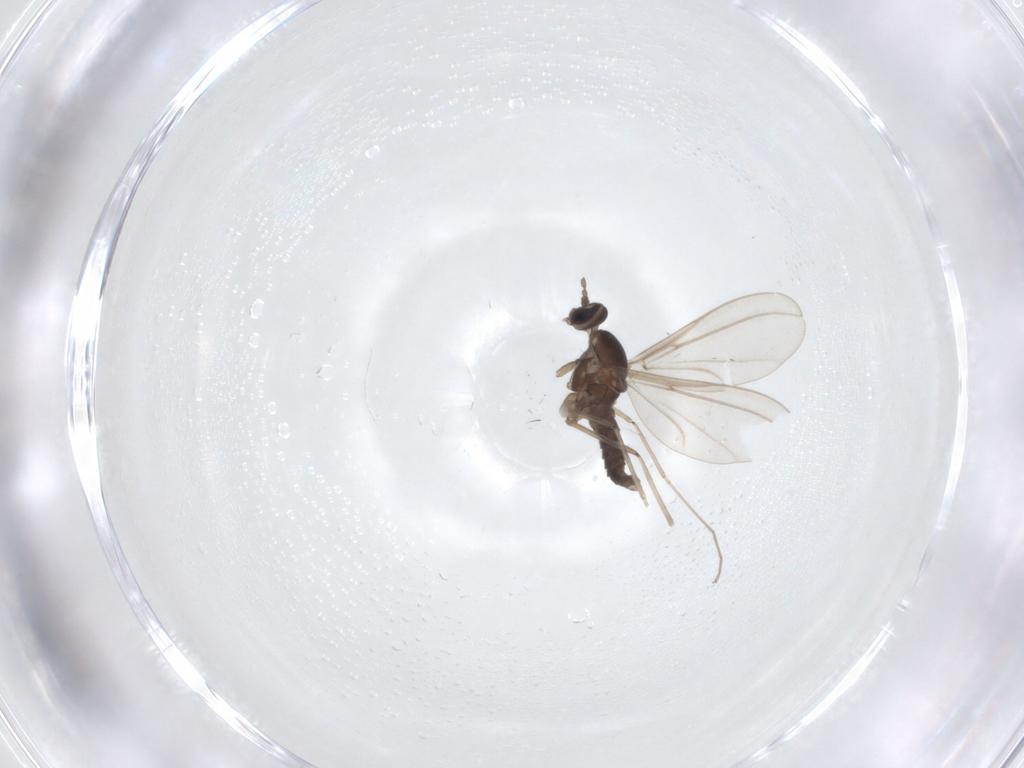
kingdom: Animalia
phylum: Arthropoda
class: Insecta
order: Diptera
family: Cecidomyiidae
